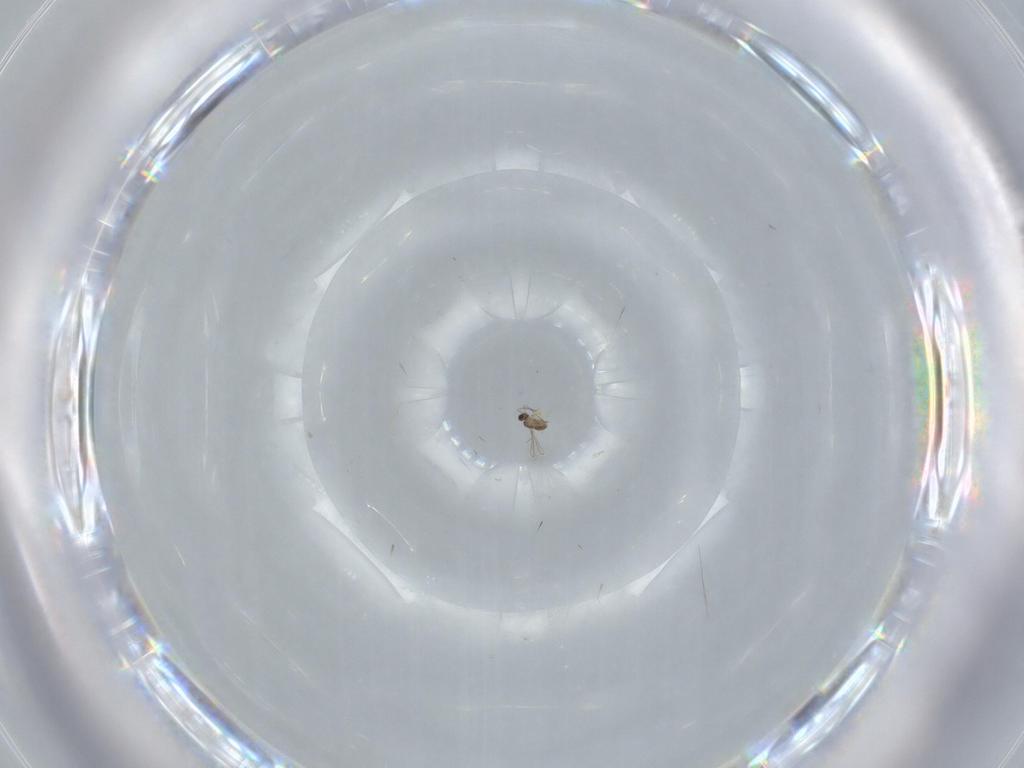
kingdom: Animalia
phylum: Arthropoda
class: Insecta
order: Hymenoptera
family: Mymaridae
